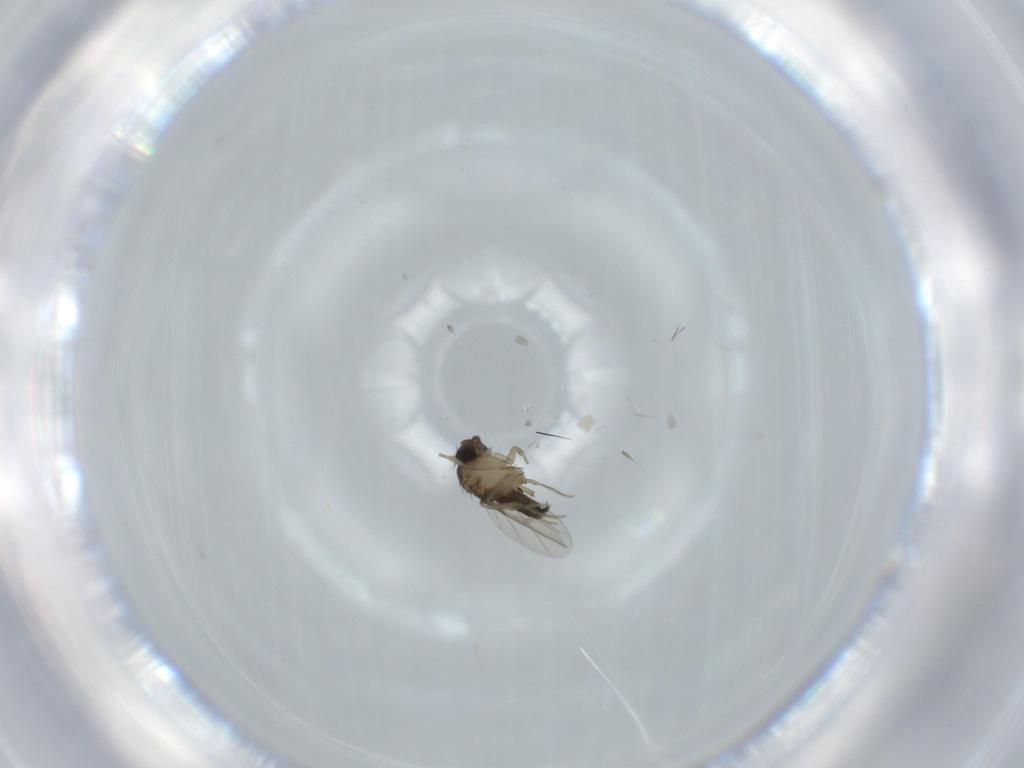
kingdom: Animalia
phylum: Arthropoda
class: Insecta
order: Diptera
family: Phoridae
